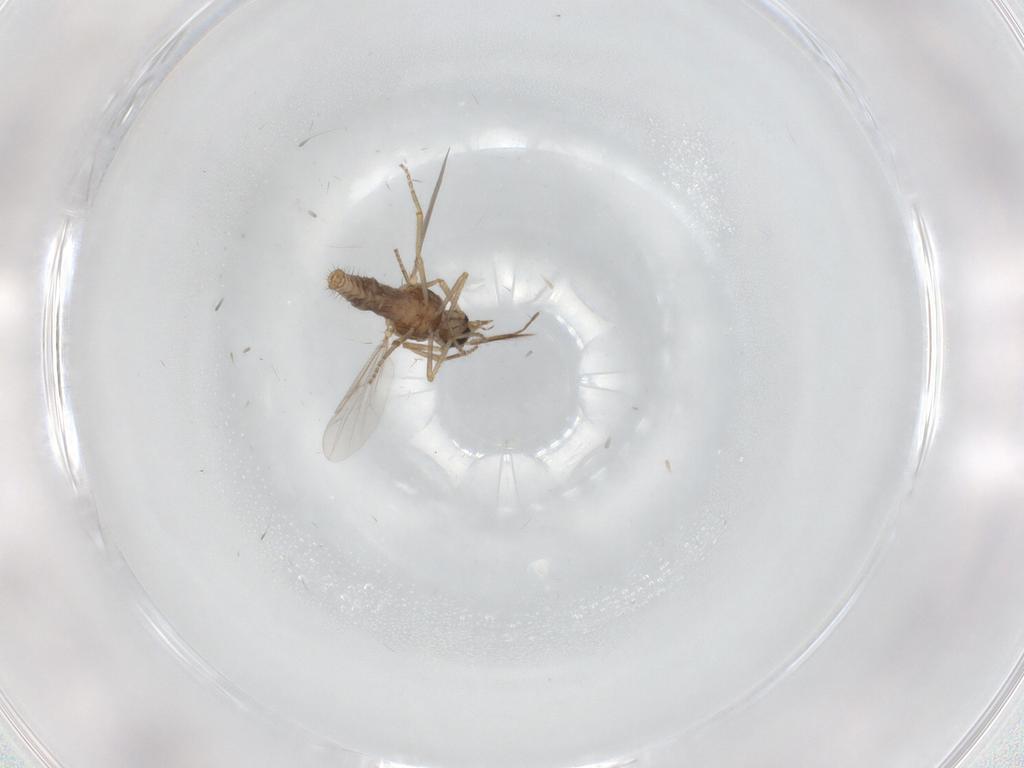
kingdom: Animalia
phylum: Arthropoda
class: Insecta
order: Diptera
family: Ceratopogonidae
